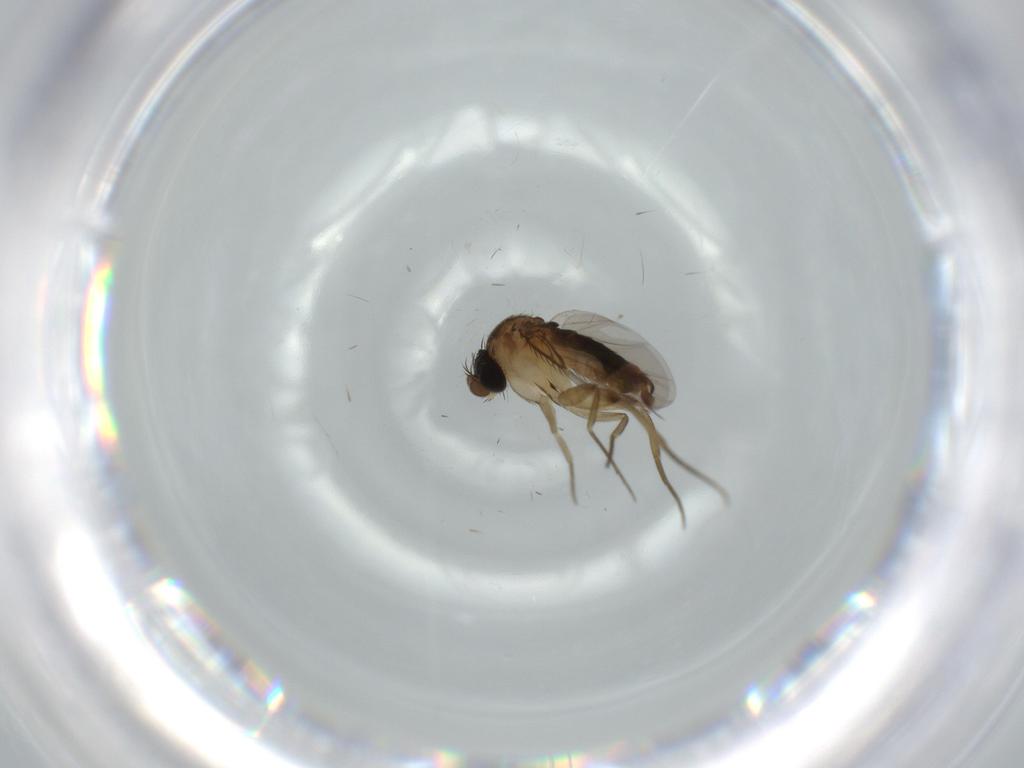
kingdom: Animalia
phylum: Arthropoda
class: Insecta
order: Diptera
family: Phoridae
